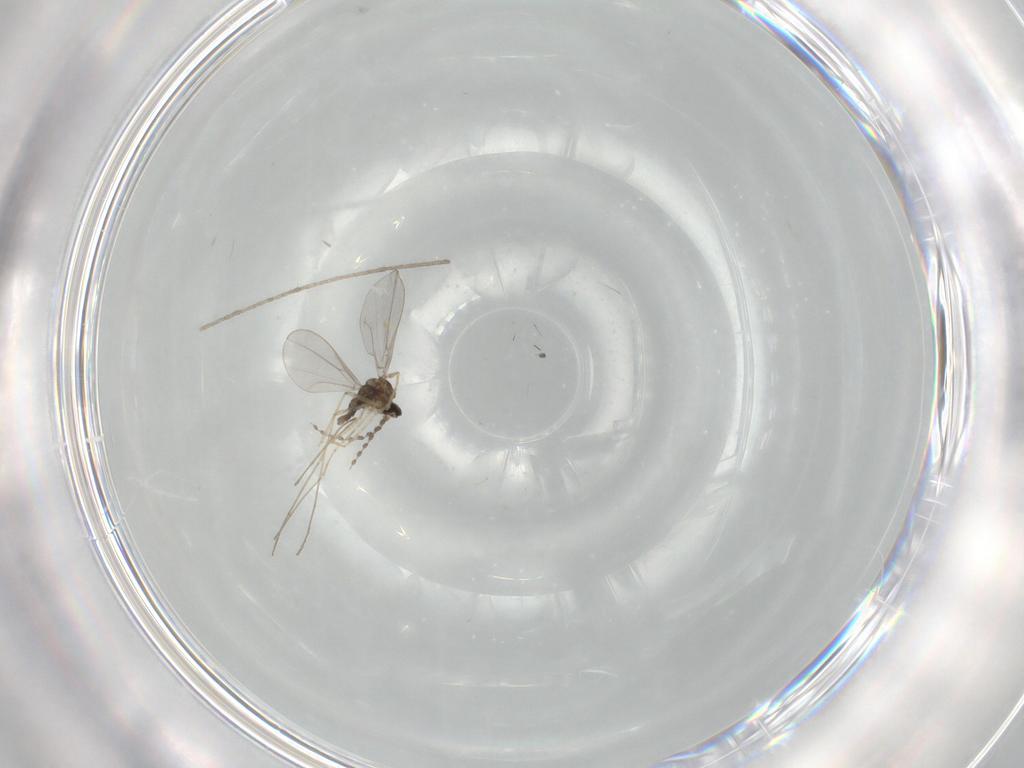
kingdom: Animalia
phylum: Arthropoda
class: Insecta
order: Diptera
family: Cecidomyiidae
